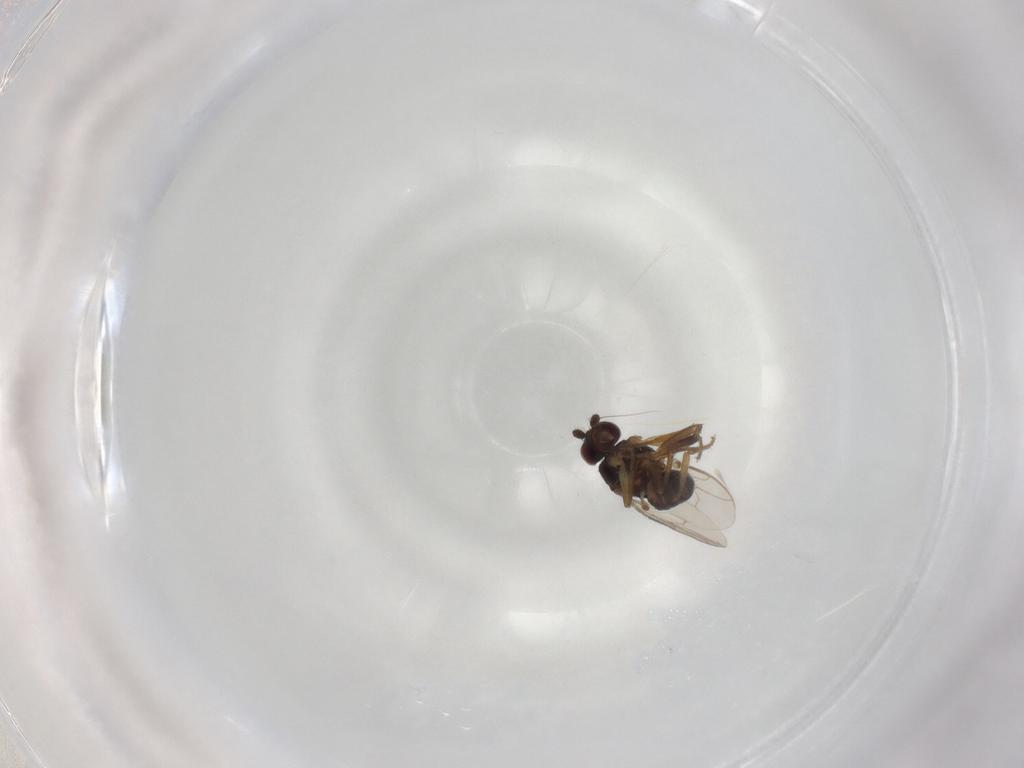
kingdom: Animalia
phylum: Arthropoda
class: Insecta
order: Diptera
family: Sphaeroceridae
